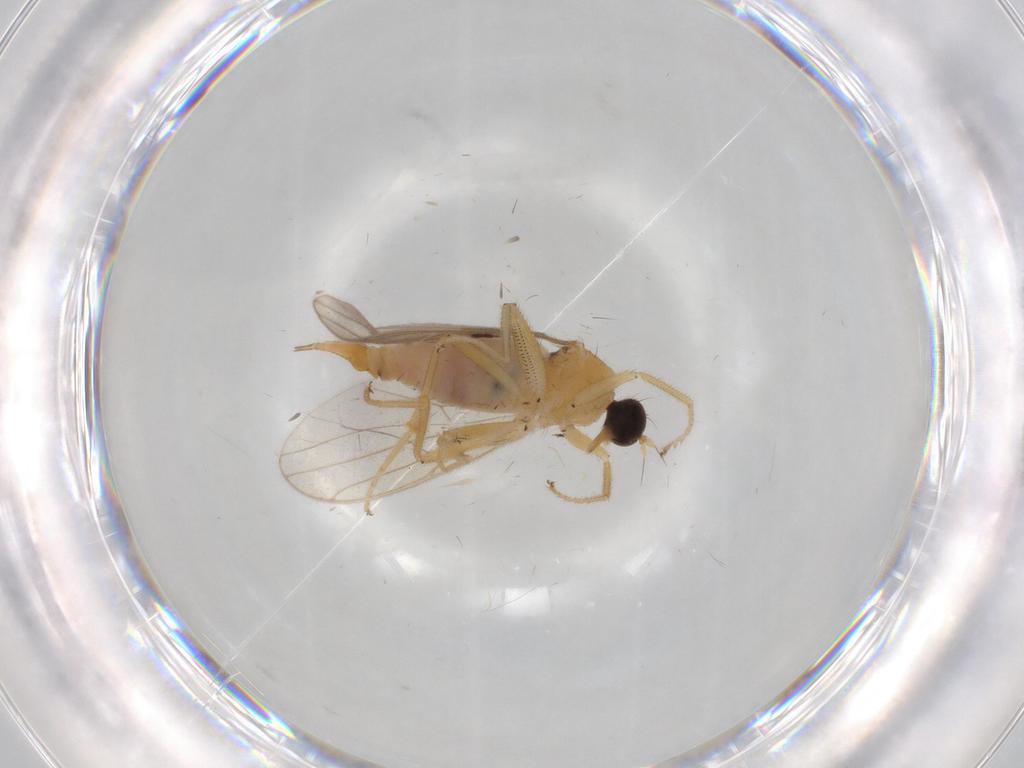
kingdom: Animalia
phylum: Arthropoda
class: Insecta
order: Diptera
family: Hybotidae
